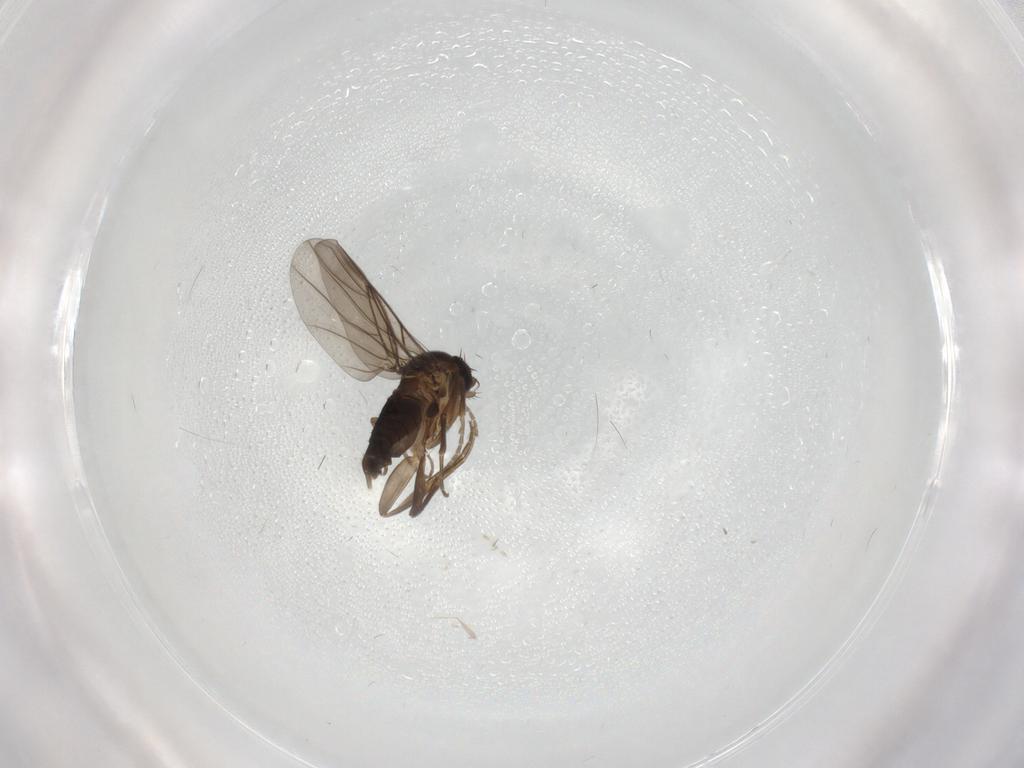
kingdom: Animalia
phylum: Arthropoda
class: Insecta
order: Diptera
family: Phoridae
